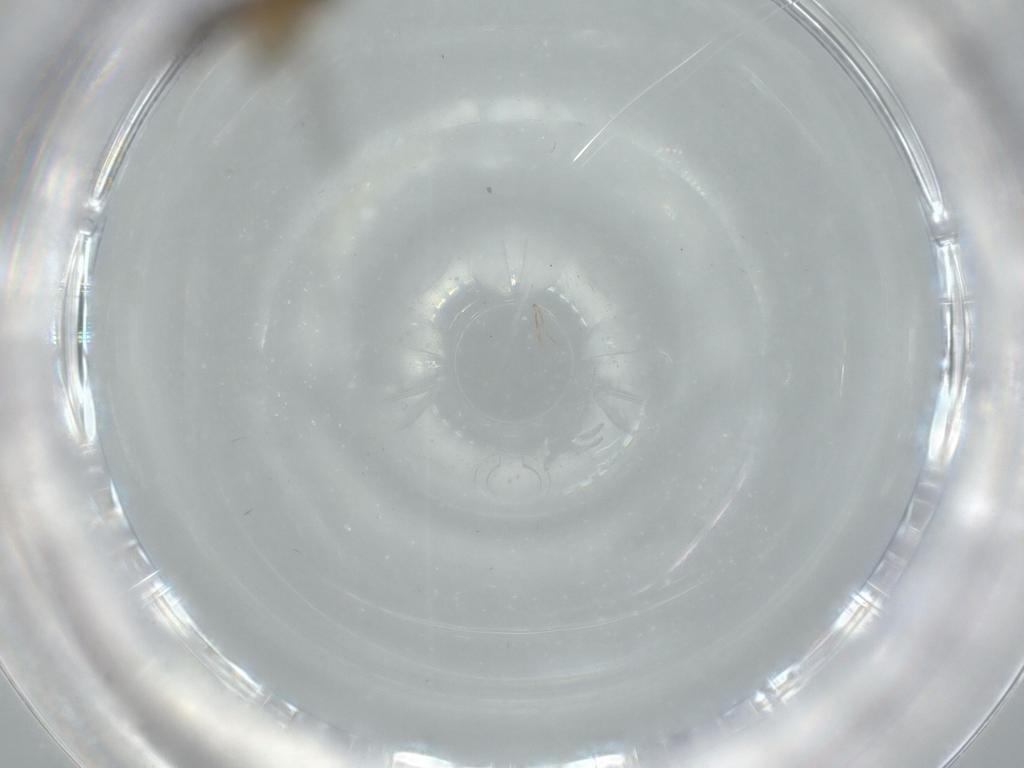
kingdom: Animalia
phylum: Arthropoda
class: Insecta
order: Diptera
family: Sciaridae
